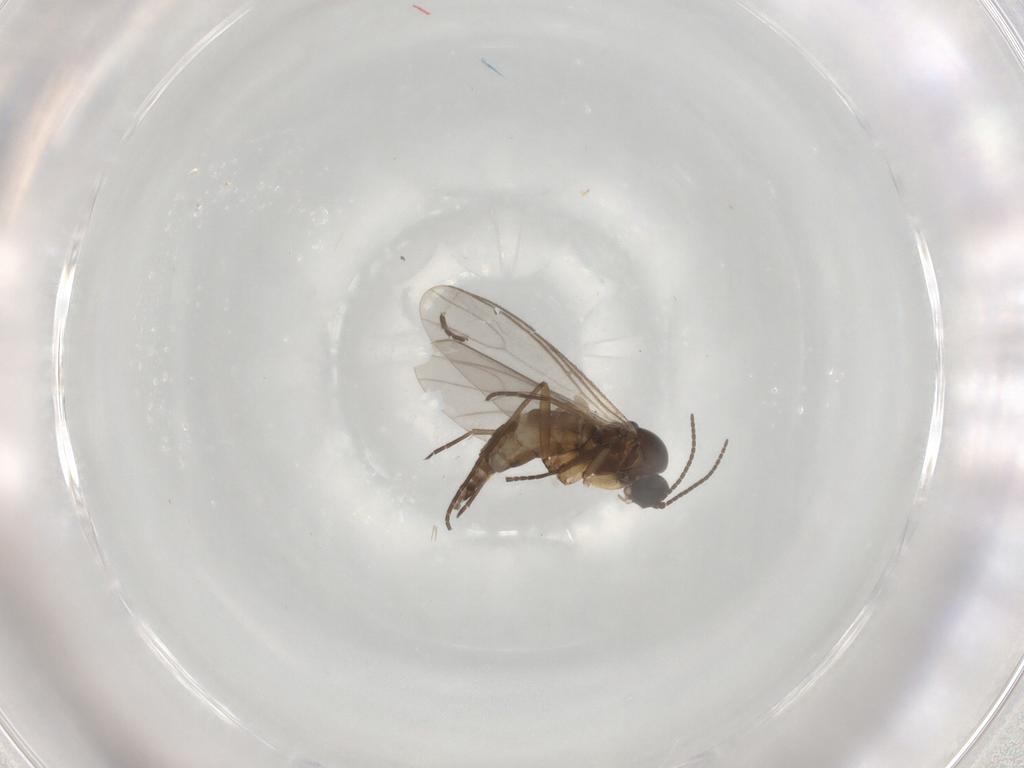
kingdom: Animalia
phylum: Arthropoda
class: Insecta
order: Diptera
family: Sciaridae
